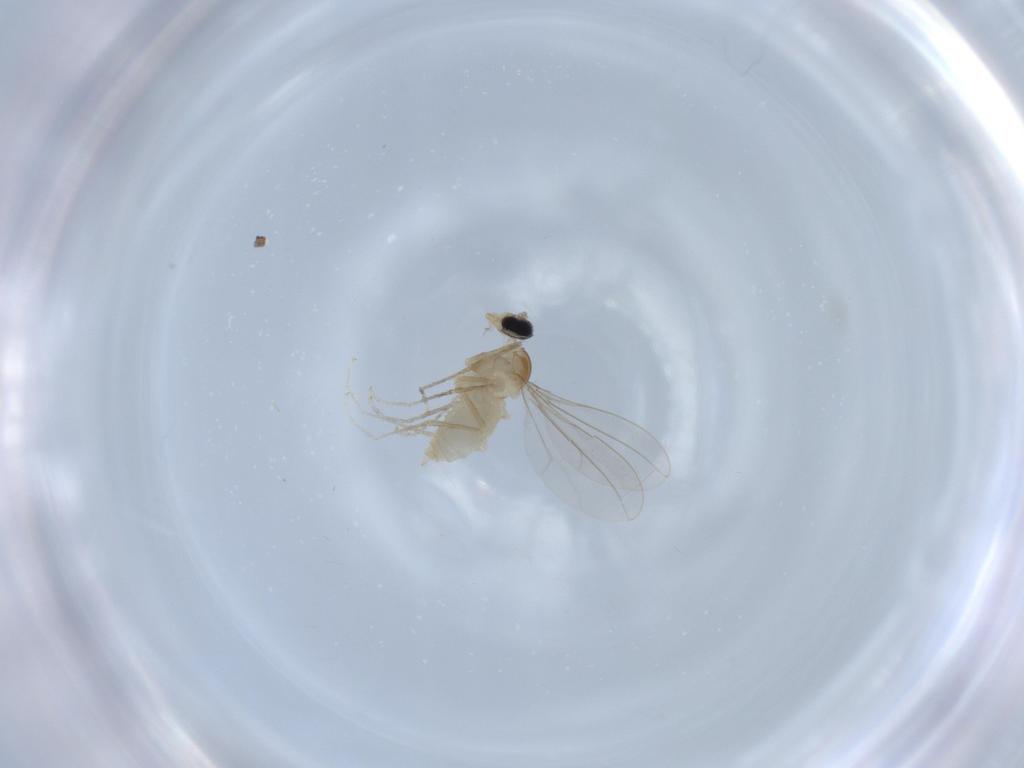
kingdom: Animalia
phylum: Arthropoda
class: Insecta
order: Diptera
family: Cecidomyiidae
